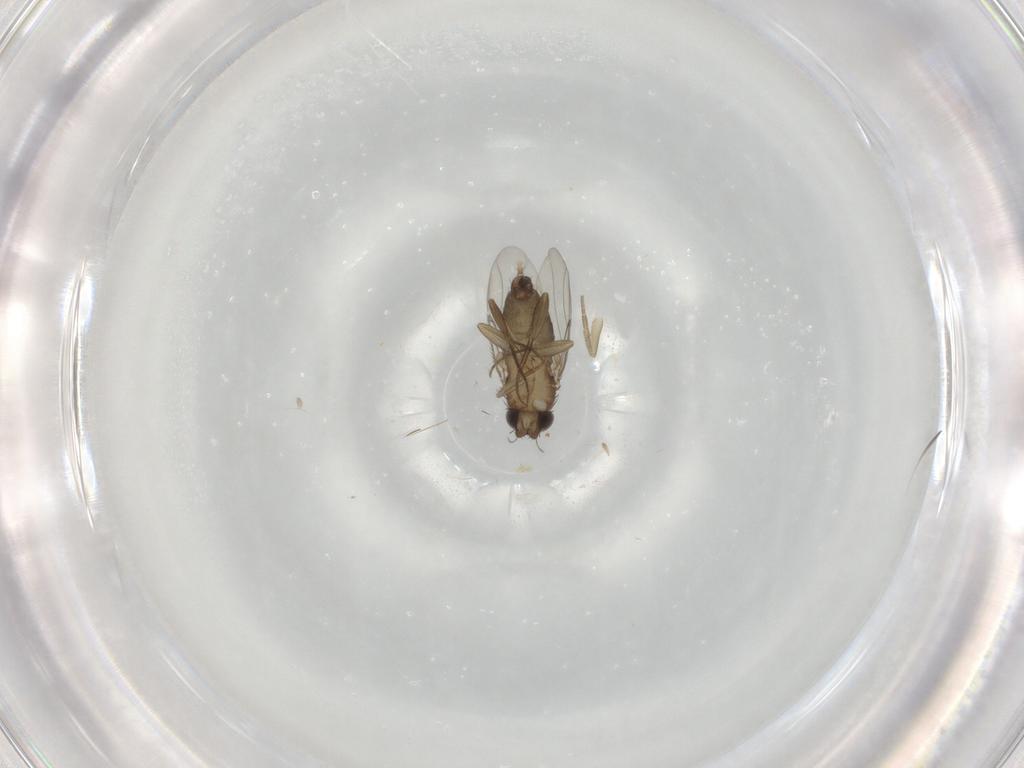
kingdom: Animalia
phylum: Arthropoda
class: Insecta
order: Diptera
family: Phoridae
